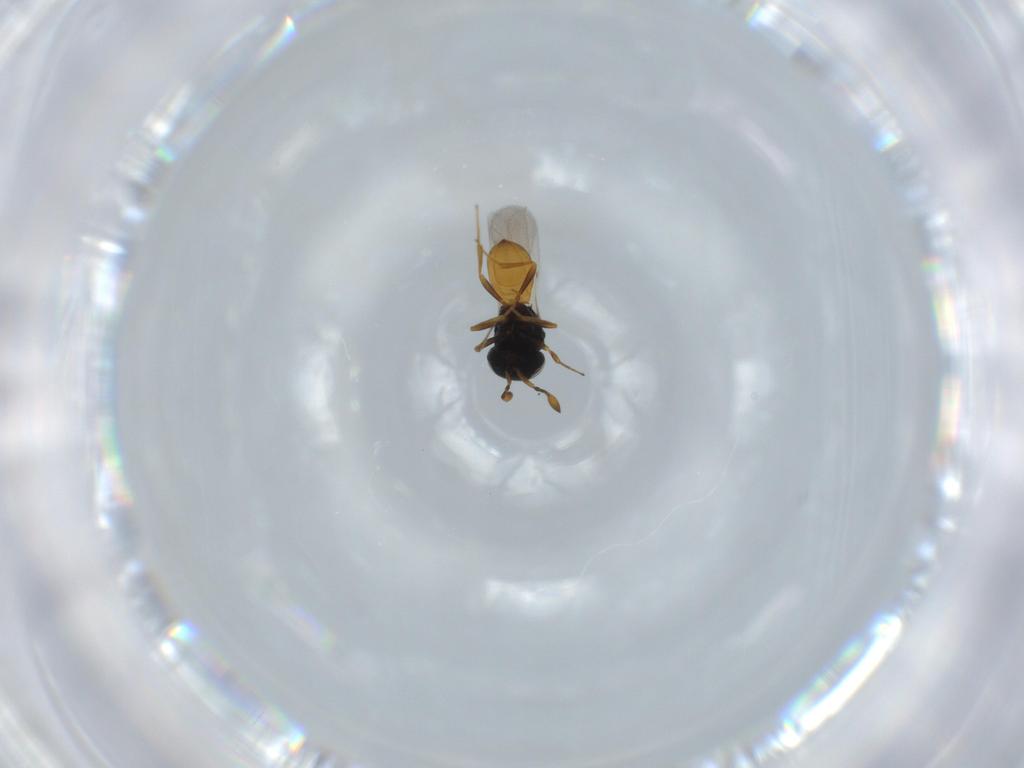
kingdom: Animalia
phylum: Arthropoda
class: Insecta
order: Hymenoptera
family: Scelionidae
